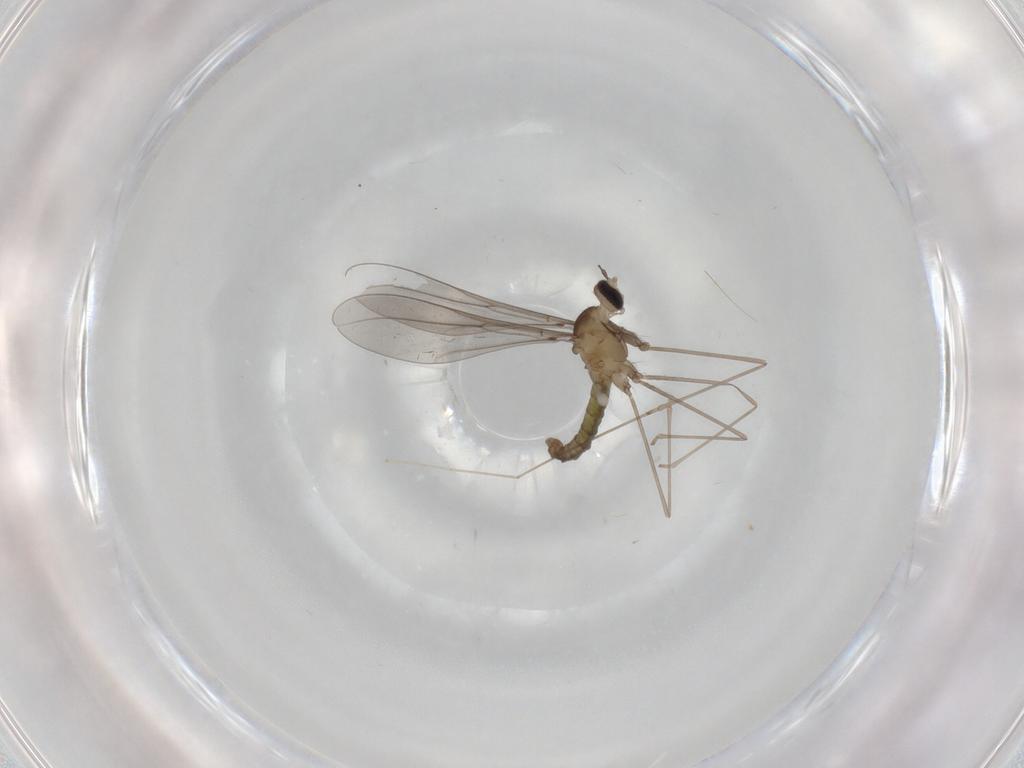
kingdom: Animalia
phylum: Arthropoda
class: Insecta
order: Diptera
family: Cecidomyiidae
